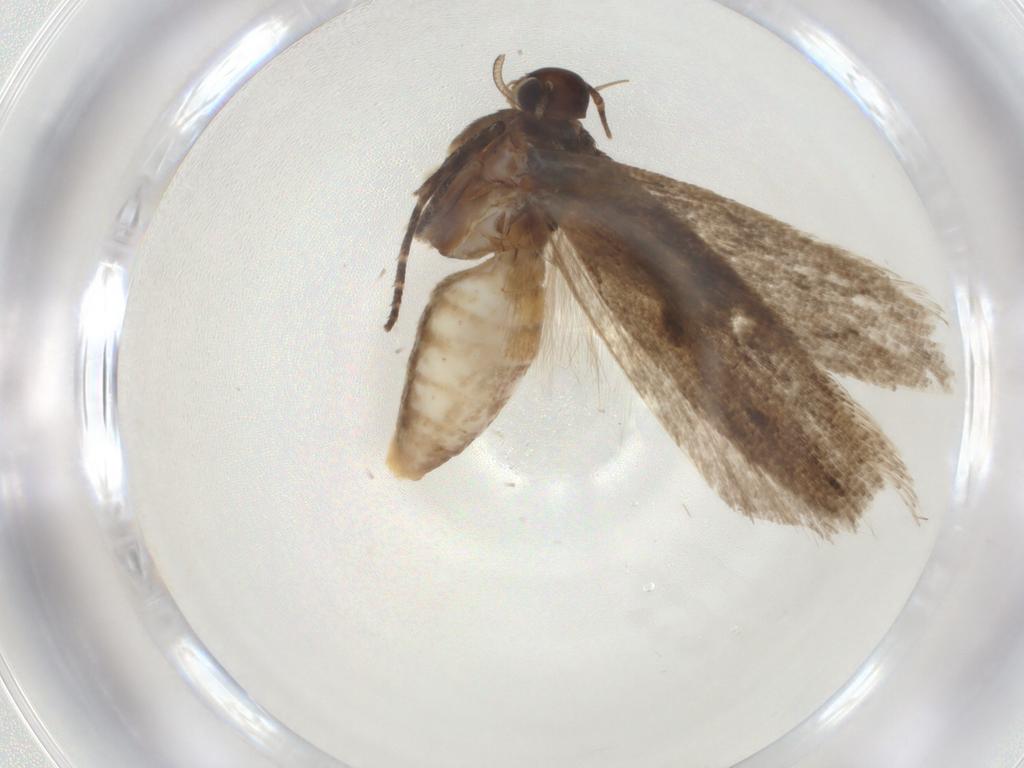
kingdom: Animalia
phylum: Arthropoda
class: Insecta
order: Lepidoptera
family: Gelechiidae
